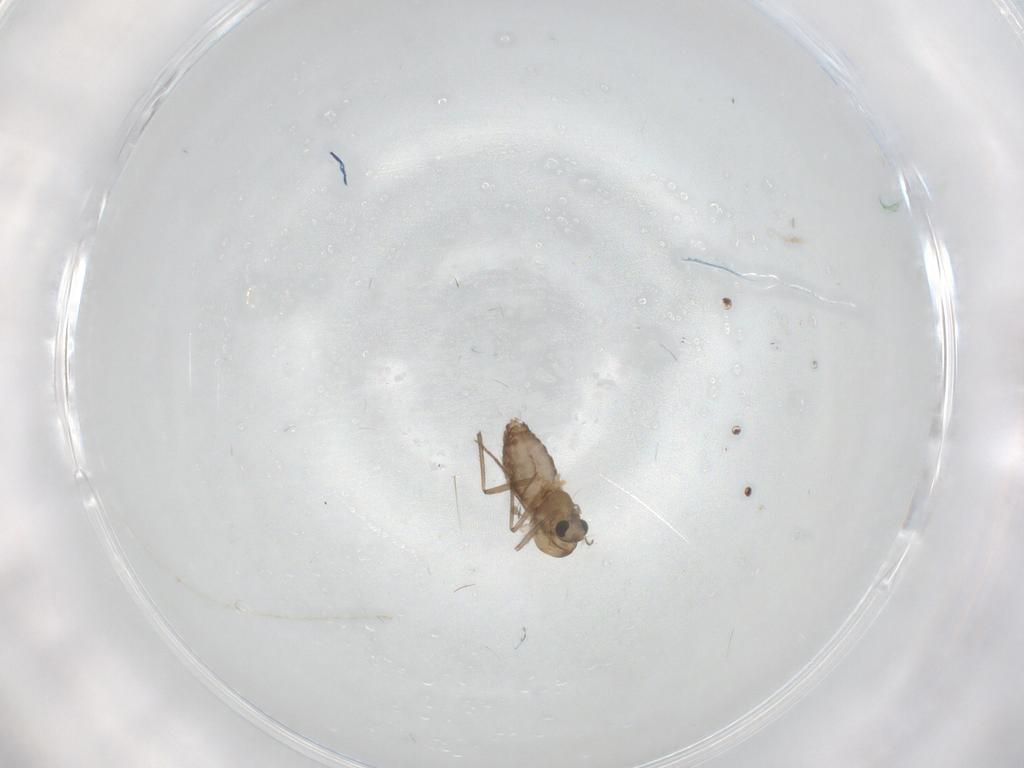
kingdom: Animalia
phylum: Arthropoda
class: Insecta
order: Diptera
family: Chironomidae
